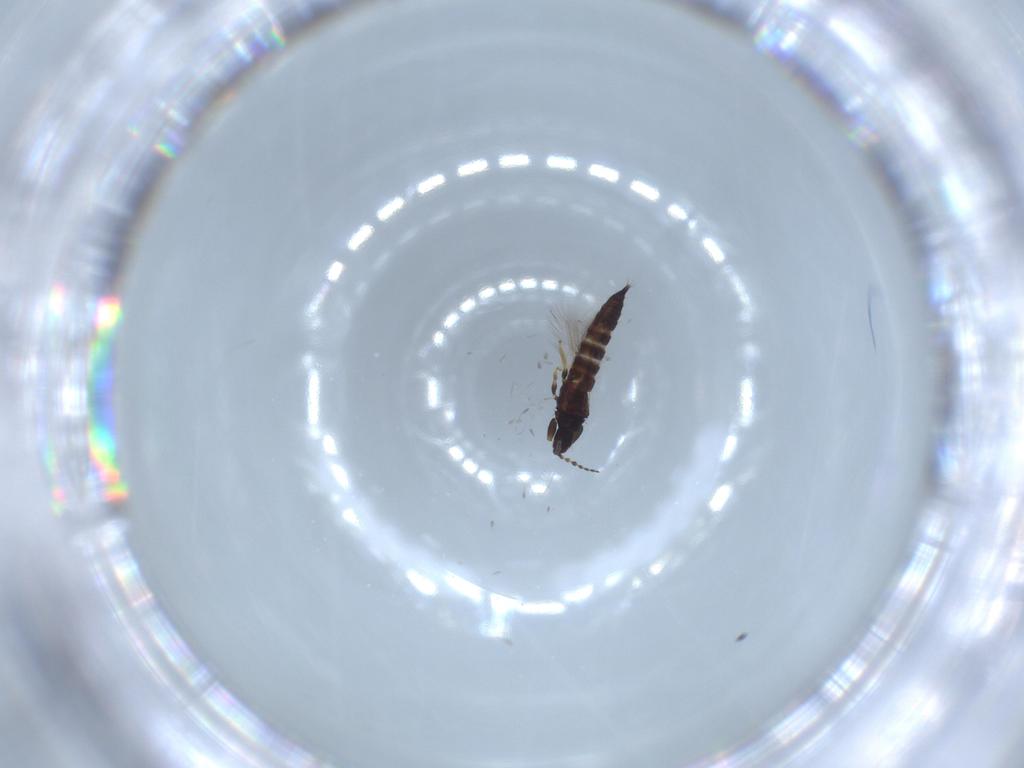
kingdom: Animalia
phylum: Arthropoda
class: Insecta
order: Thysanoptera
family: Phlaeothripidae
